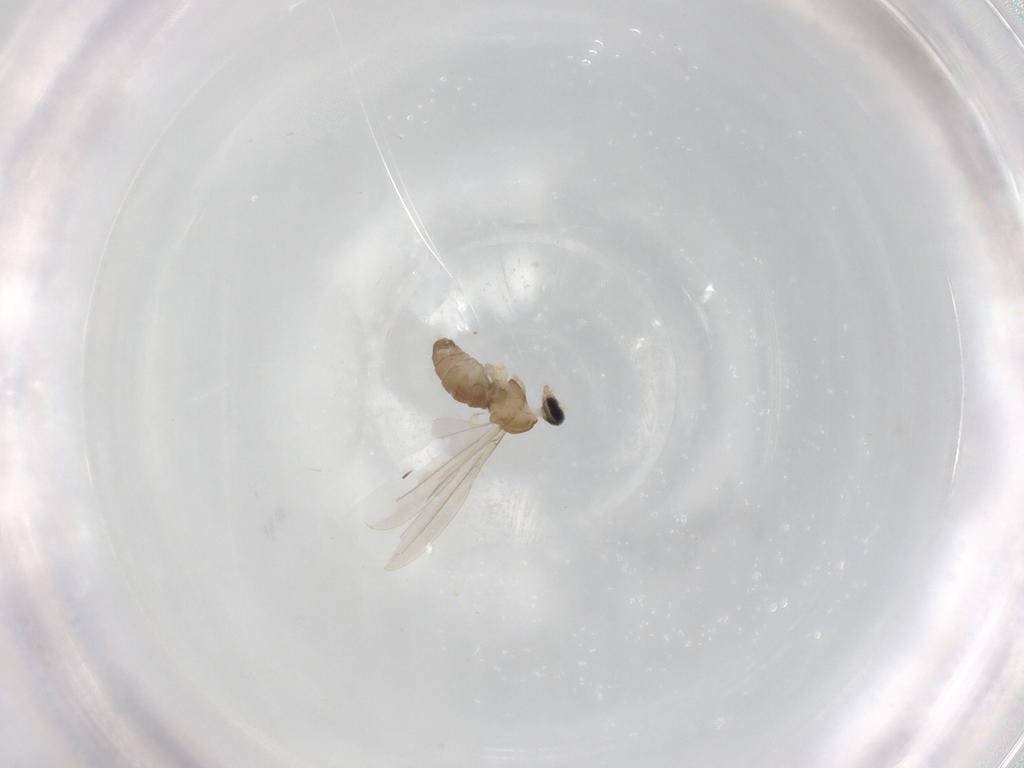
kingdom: Animalia
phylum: Arthropoda
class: Insecta
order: Diptera
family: Cecidomyiidae
